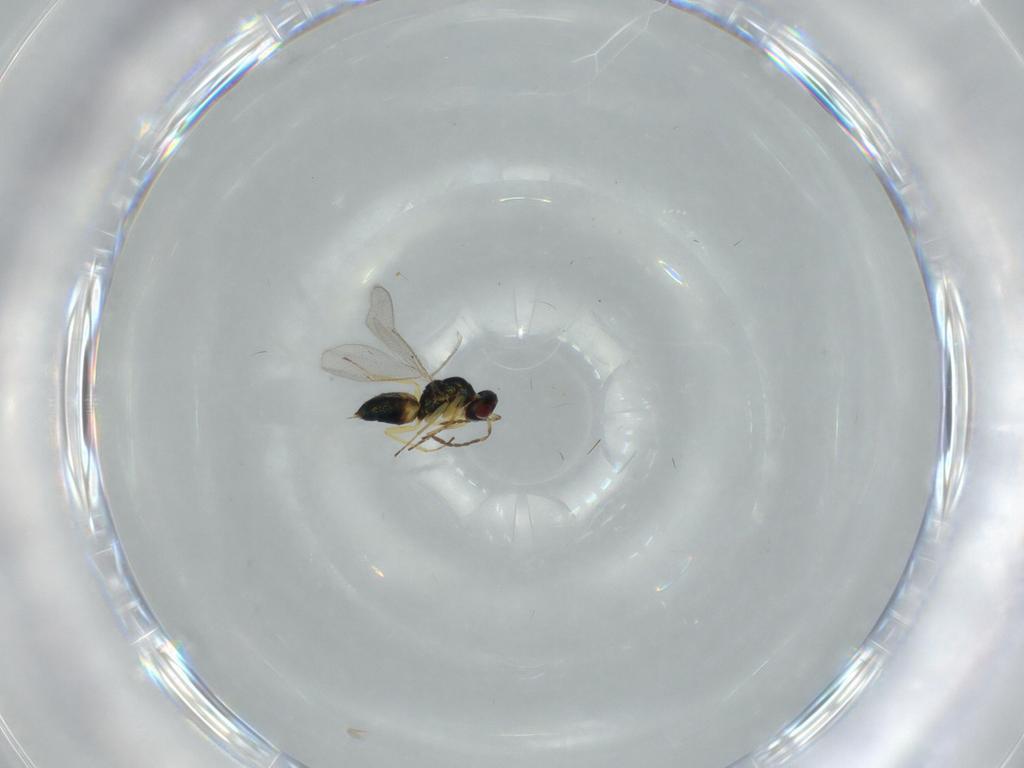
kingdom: Animalia
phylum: Arthropoda
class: Insecta
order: Hymenoptera
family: Eulophidae
